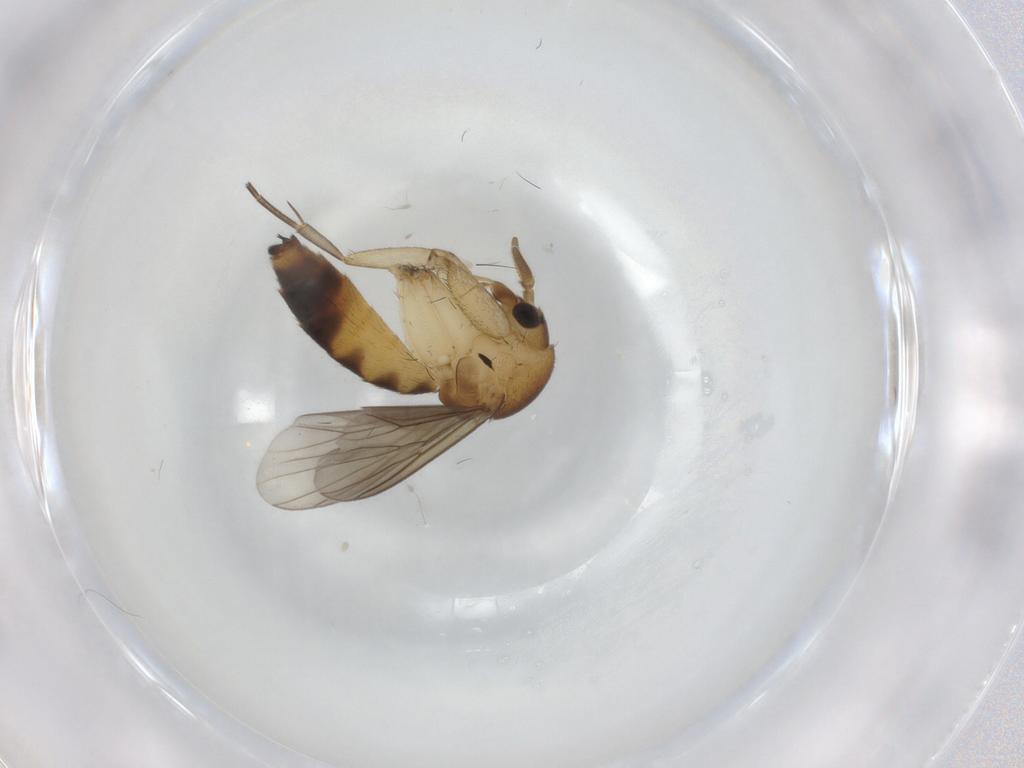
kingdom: Animalia
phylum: Arthropoda
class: Insecta
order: Diptera
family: Mycetophilidae
